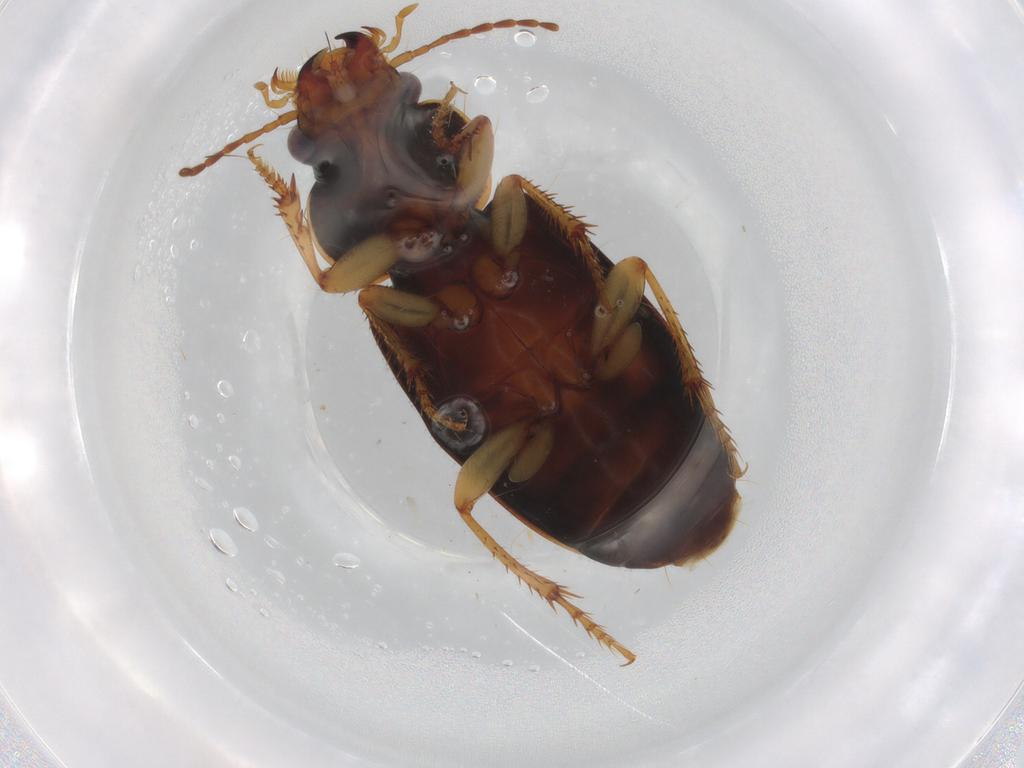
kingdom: Animalia
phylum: Arthropoda
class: Insecta
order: Coleoptera
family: Carabidae
